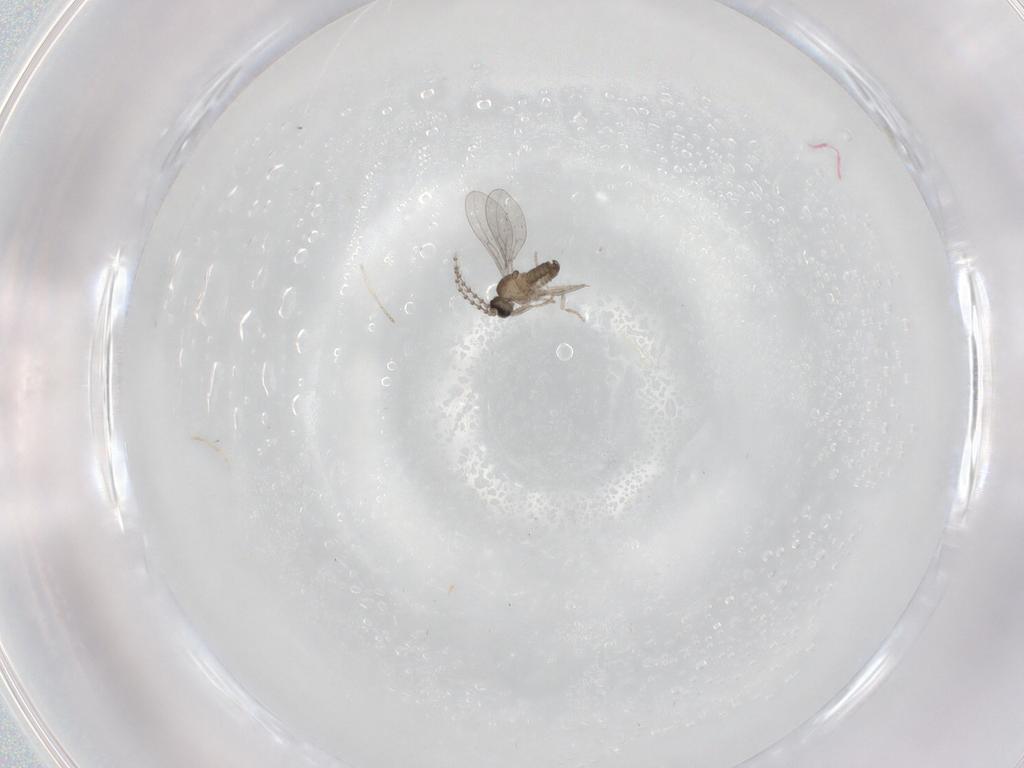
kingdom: Animalia
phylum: Arthropoda
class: Insecta
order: Diptera
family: Cecidomyiidae
